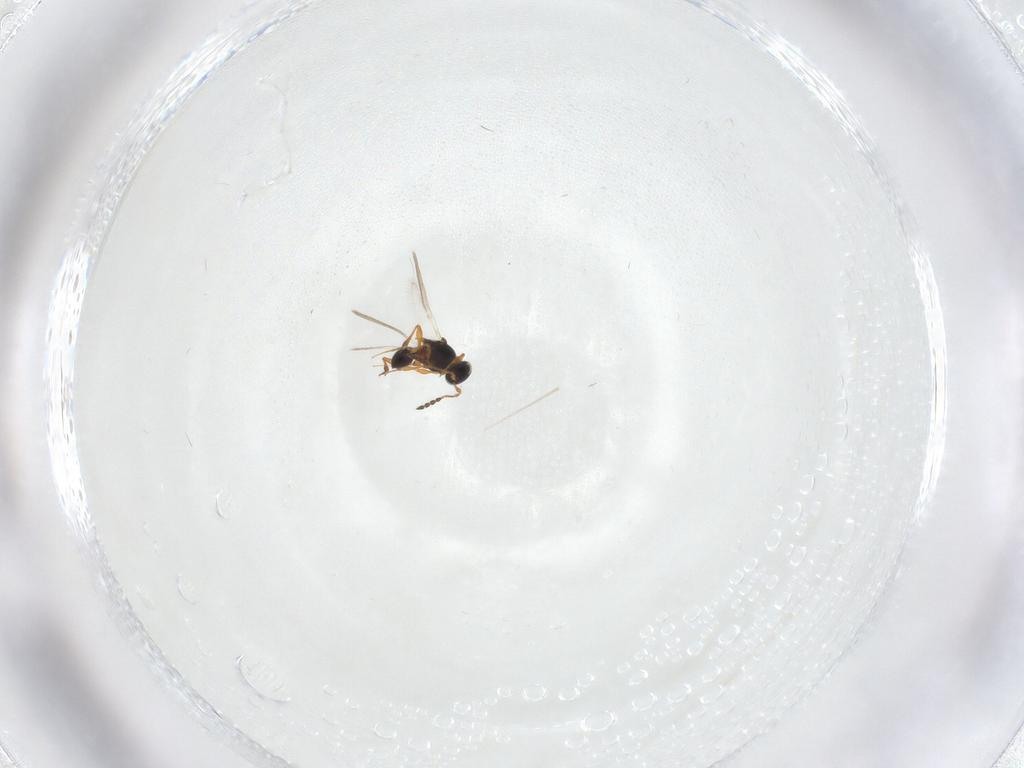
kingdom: Animalia
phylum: Arthropoda
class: Insecta
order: Hymenoptera
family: Platygastridae
